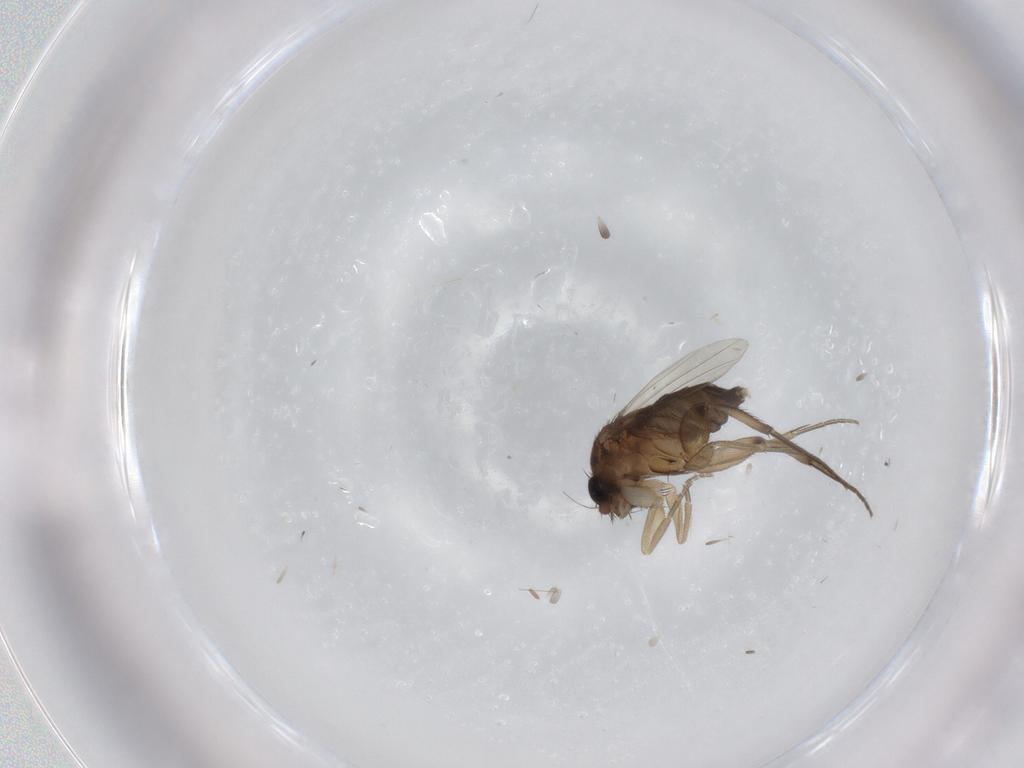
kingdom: Animalia
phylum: Arthropoda
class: Insecta
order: Diptera
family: Phoridae
